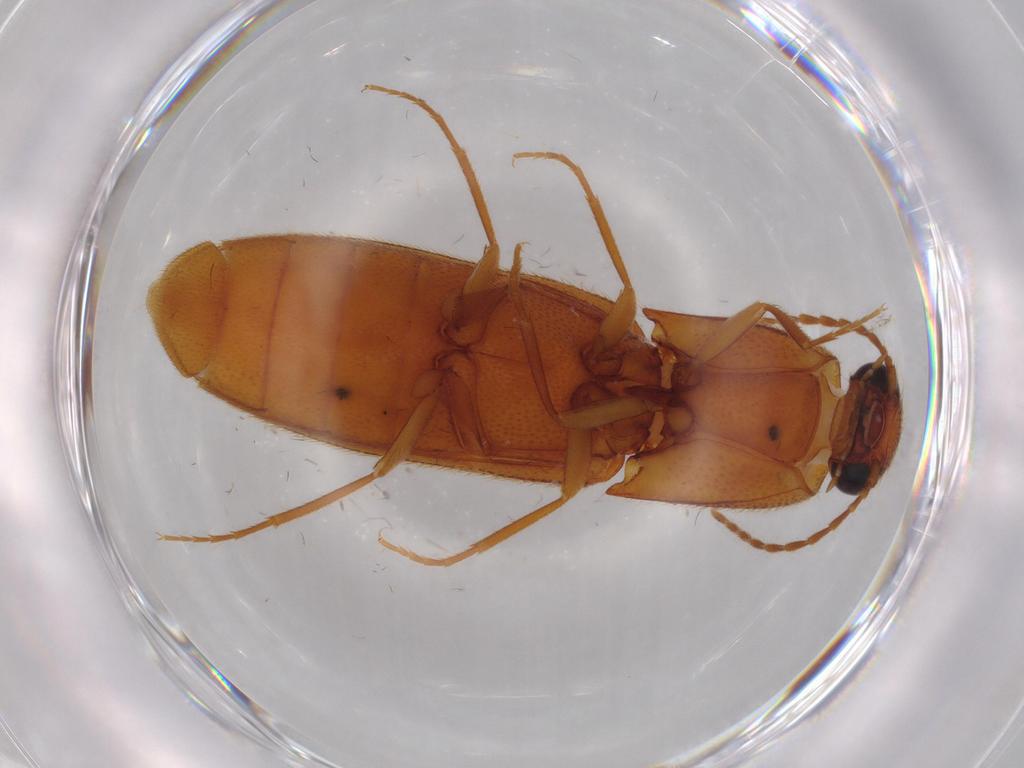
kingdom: Animalia
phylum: Arthropoda
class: Insecta
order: Coleoptera
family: Elateridae
